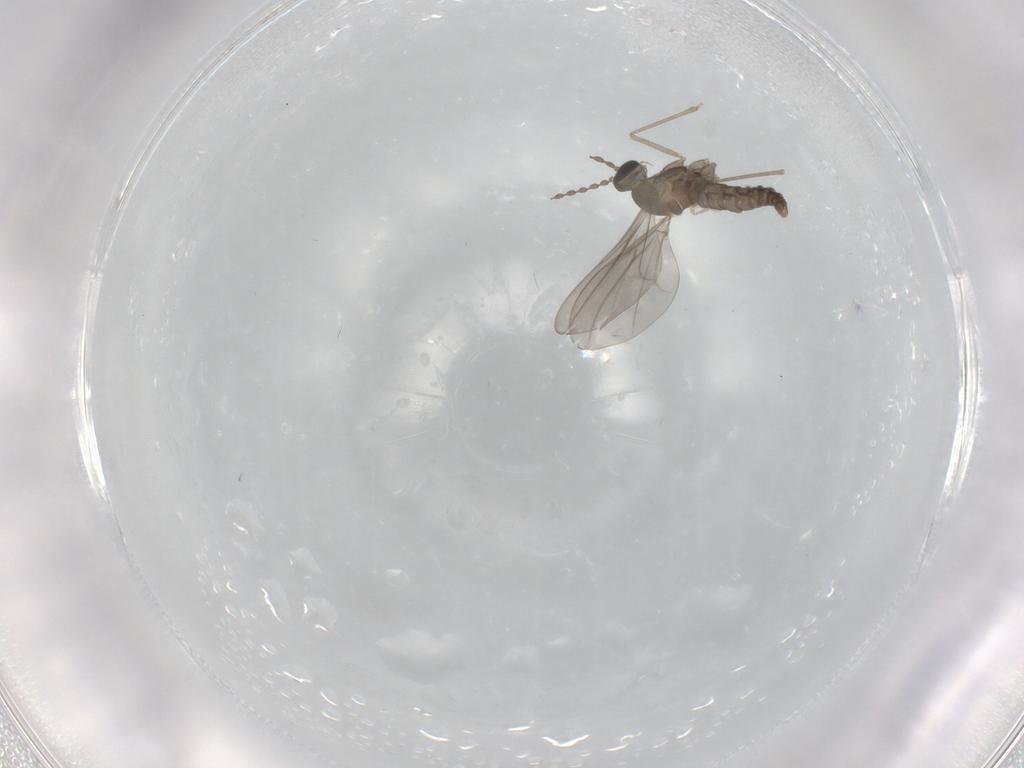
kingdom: Animalia
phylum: Arthropoda
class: Insecta
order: Diptera
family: Cecidomyiidae
